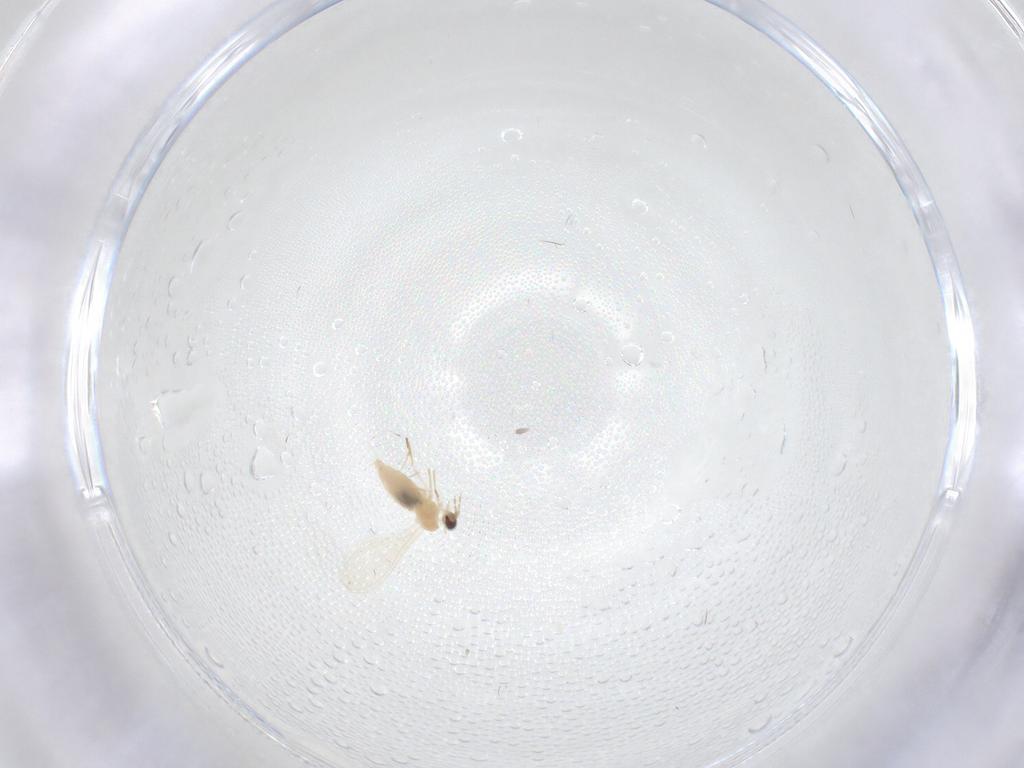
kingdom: Animalia
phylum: Arthropoda
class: Insecta
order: Diptera
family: Cecidomyiidae
